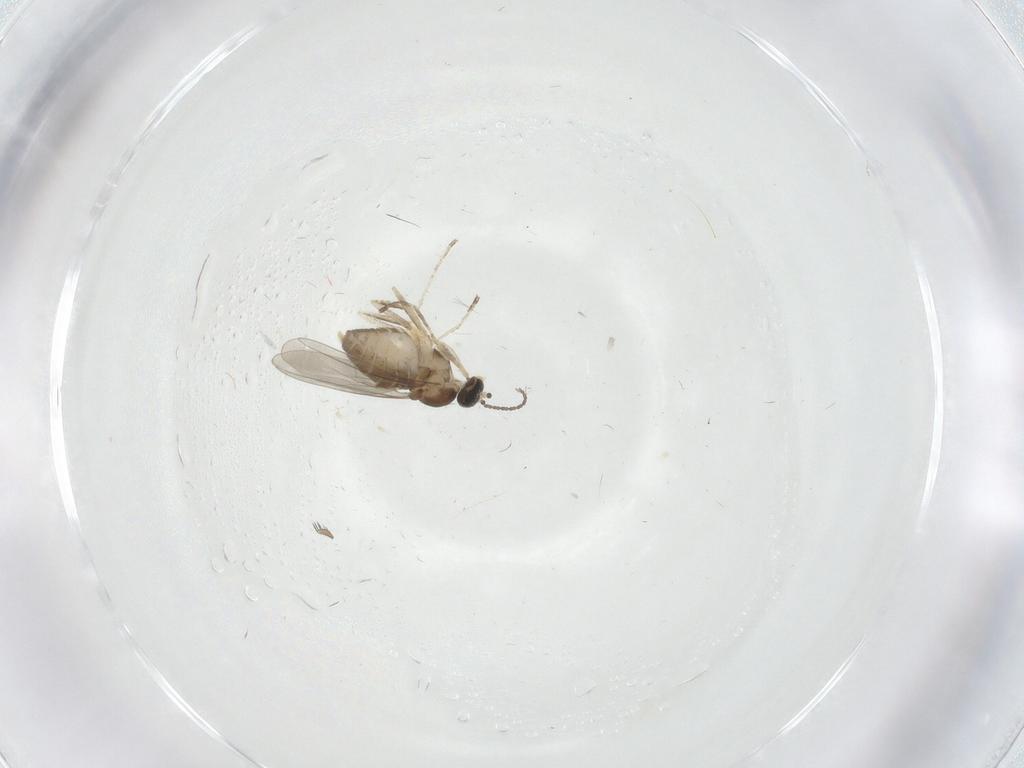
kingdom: Animalia
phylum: Arthropoda
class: Insecta
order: Diptera
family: Cecidomyiidae
